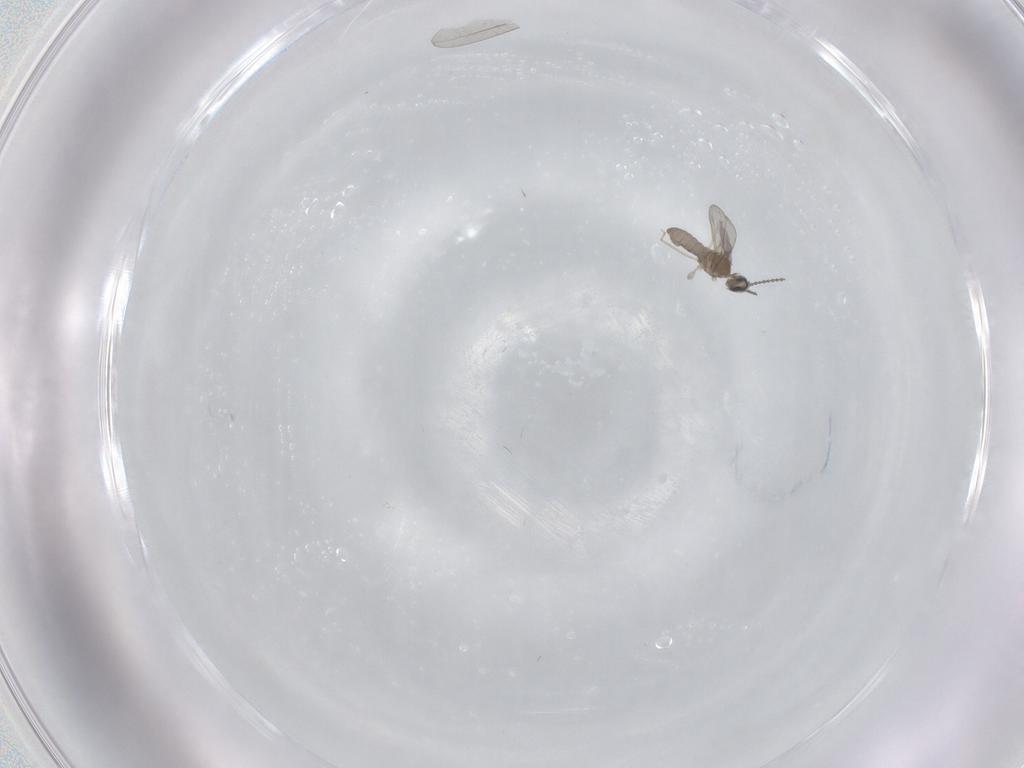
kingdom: Animalia
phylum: Arthropoda
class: Insecta
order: Diptera
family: Cecidomyiidae
